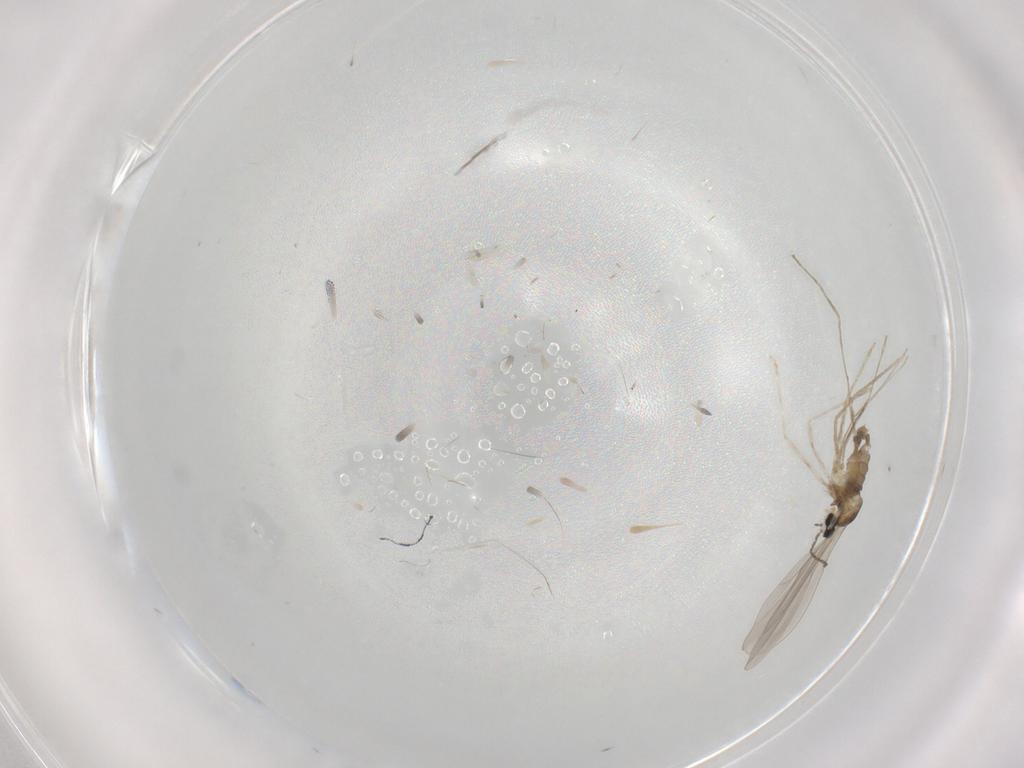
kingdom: Animalia
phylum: Arthropoda
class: Insecta
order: Diptera
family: Cecidomyiidae
